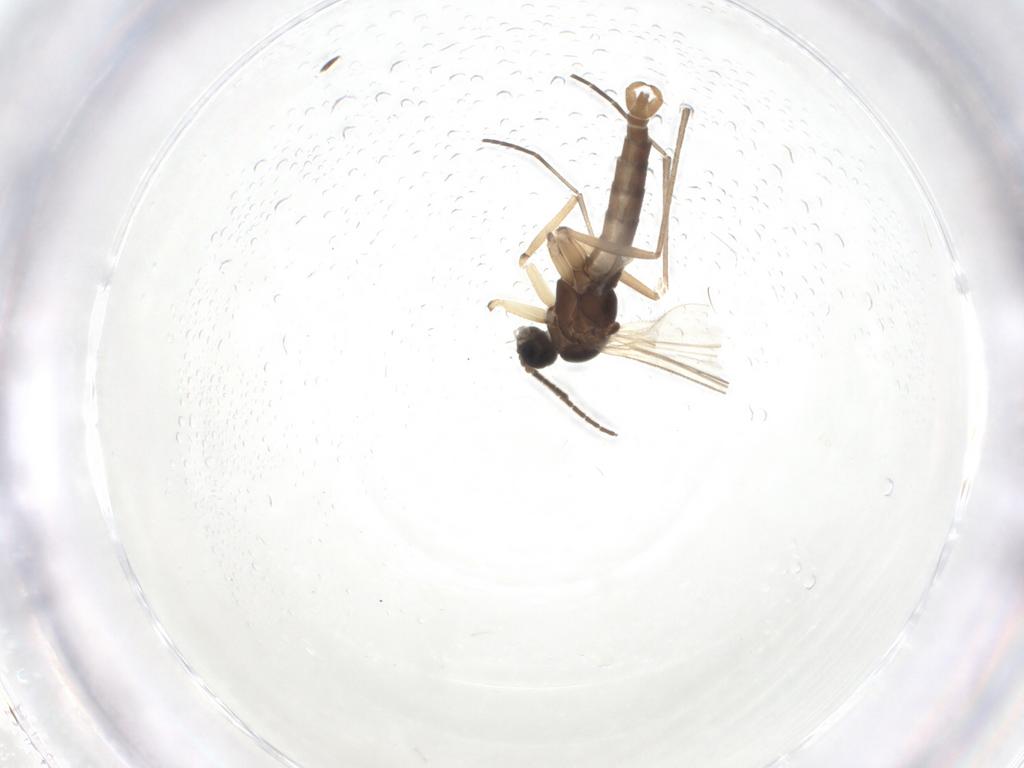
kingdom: Animalia
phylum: Arthropoda
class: Insecta
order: Diptera
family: Sciaridae
